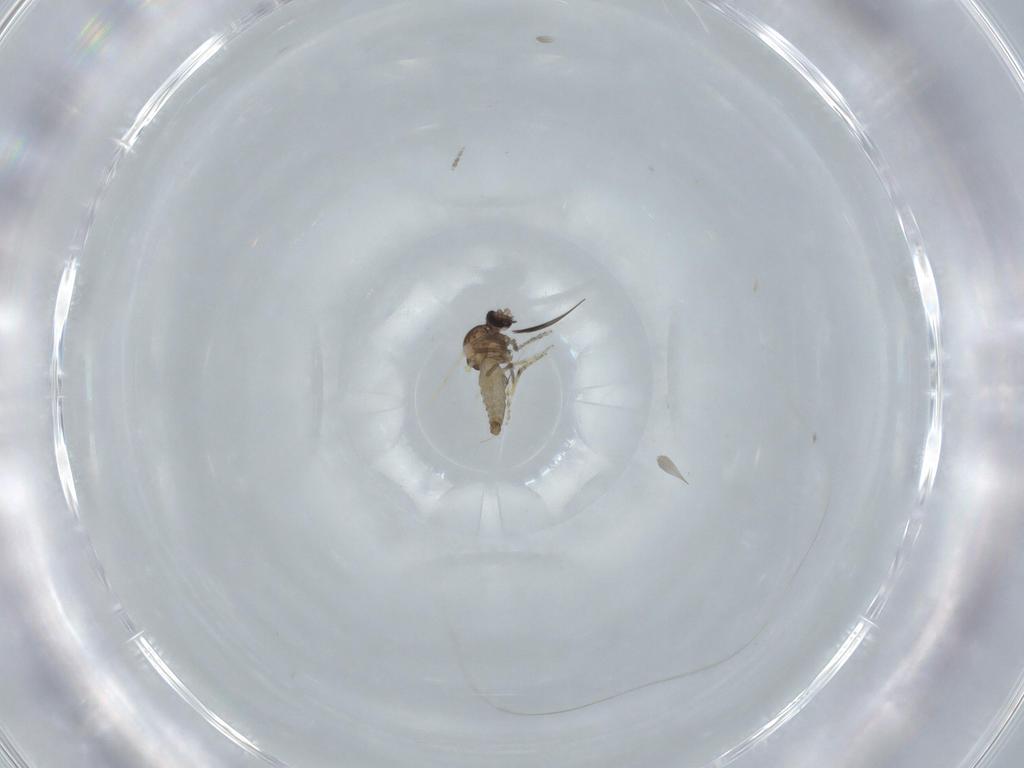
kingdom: Animalia
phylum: Arthropoda
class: Insecta
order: Diptera
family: Ceratopogonidae
